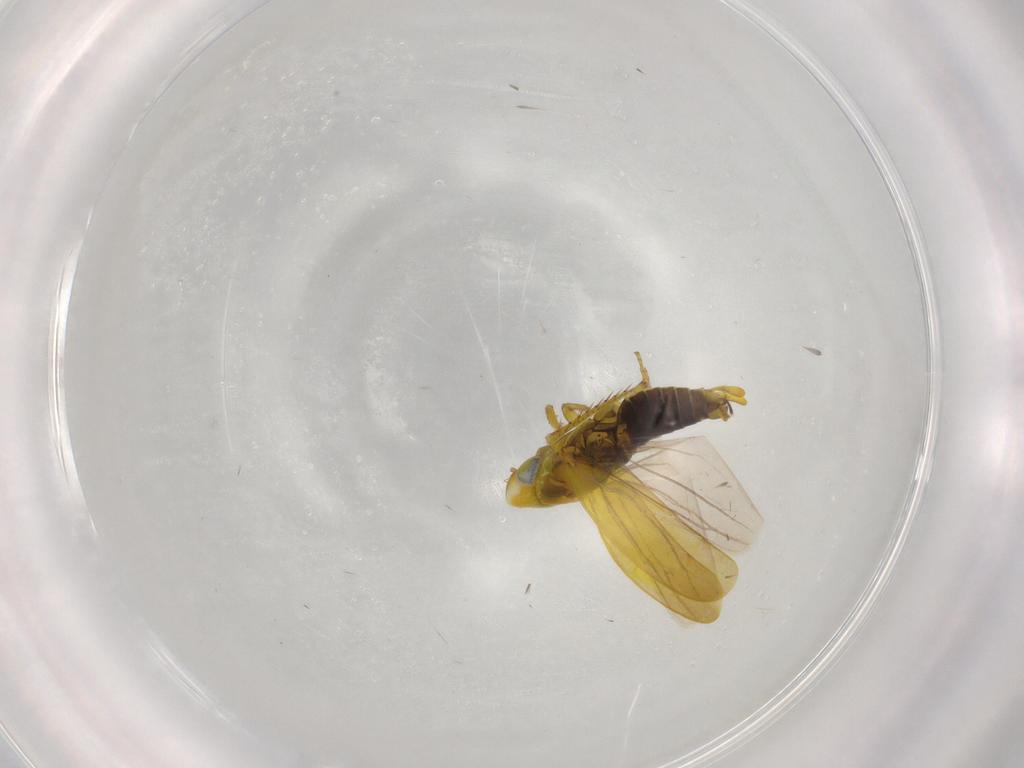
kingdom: Animalia
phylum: Arthropoda
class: Insecta
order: Hemiptera
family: Cicadellidae
